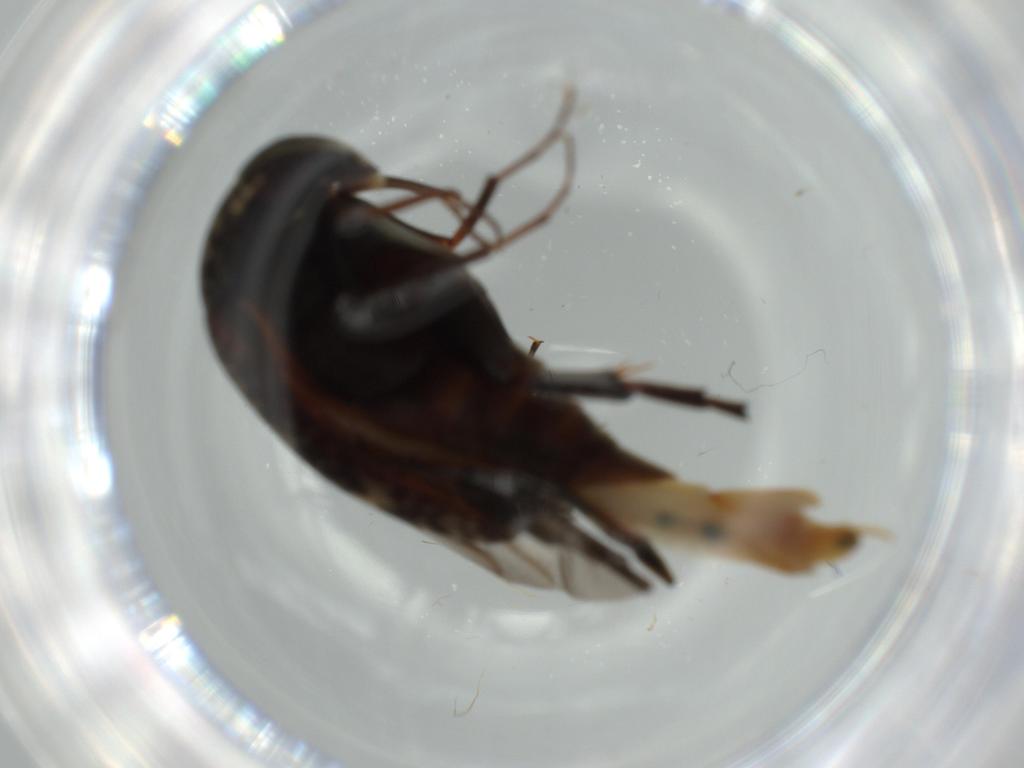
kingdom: Animalia
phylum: Arthropoda
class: Insecta
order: Coleoptera
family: Chrysomelidae
